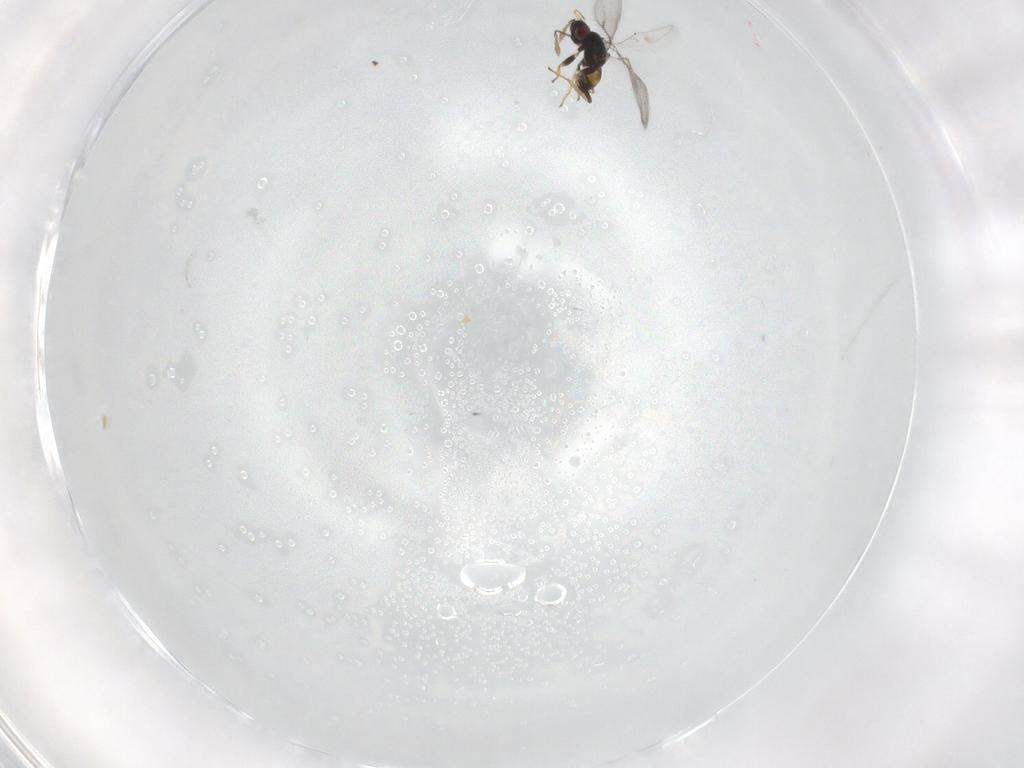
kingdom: Animalia
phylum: Arthropoda
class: Insecta
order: Hymenoptera
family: Eulophidae
